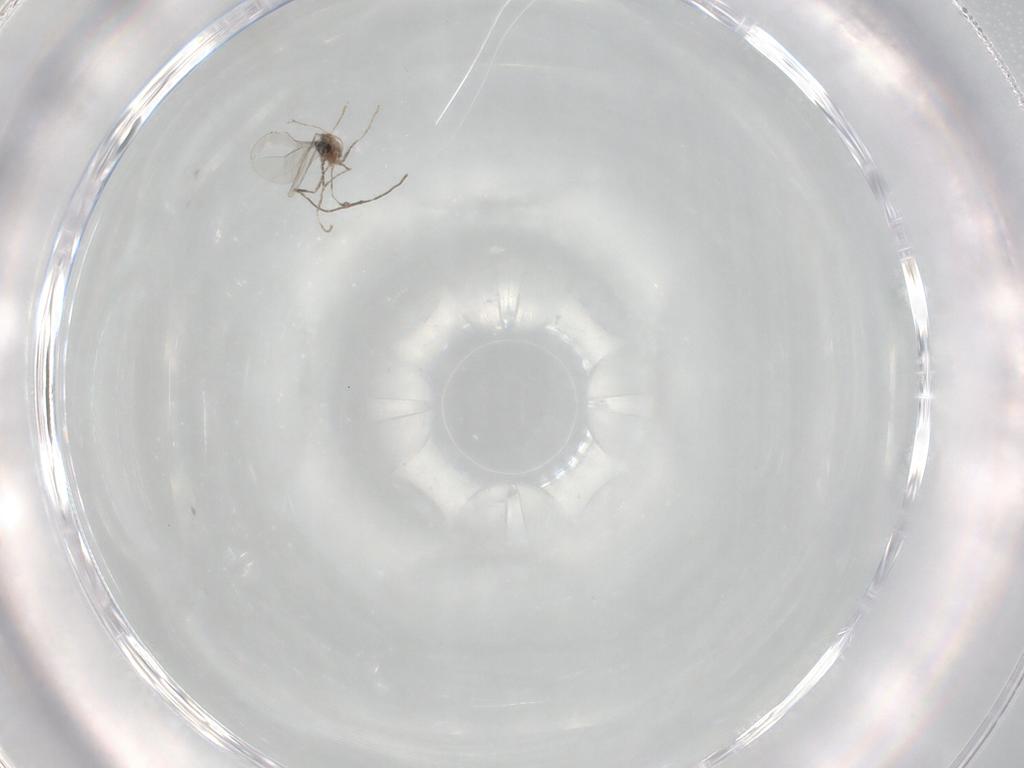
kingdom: Animalia
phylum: Arthropoda
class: Insecta
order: Diptera
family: Cecidomyiidae
